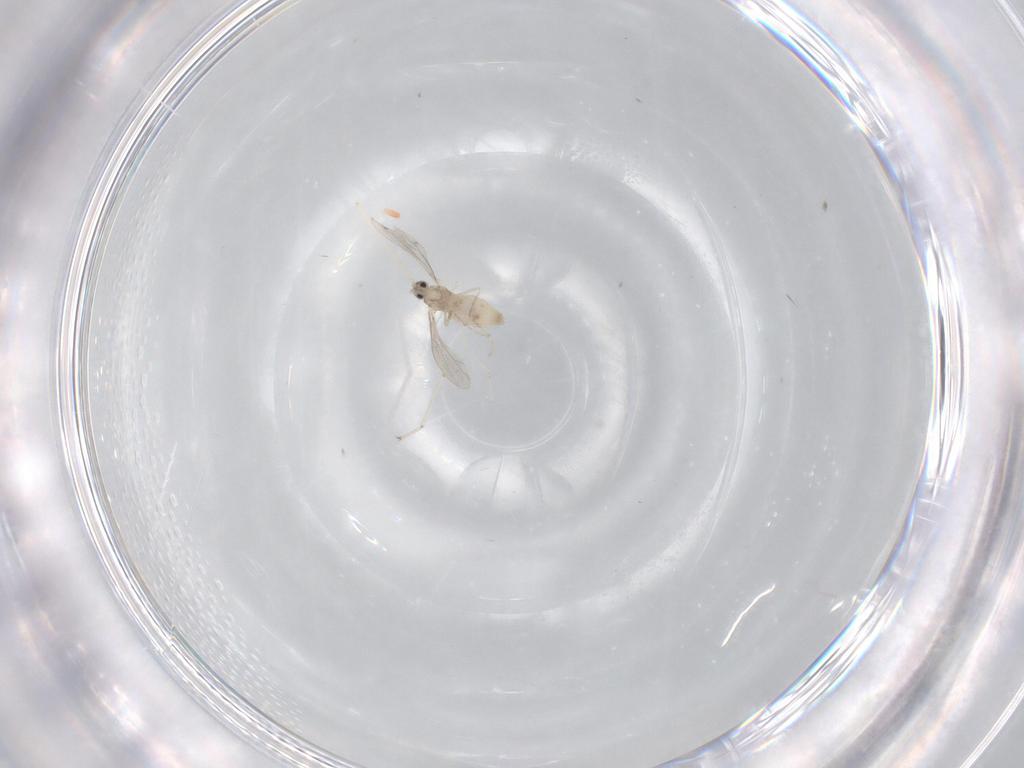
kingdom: Animalia
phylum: Arthropoda
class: Insecta
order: Diptera
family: Cecidomyiidae
